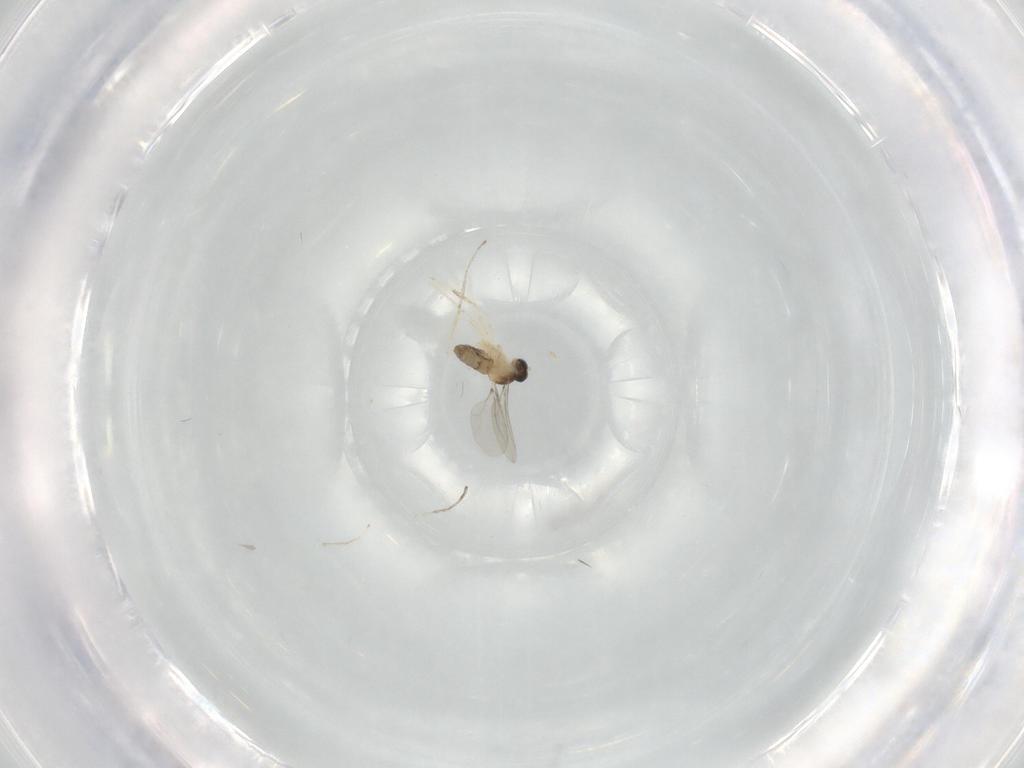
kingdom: Animalia
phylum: Arthropoda
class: Insecta
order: Diptera
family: Cecidomyiidae
